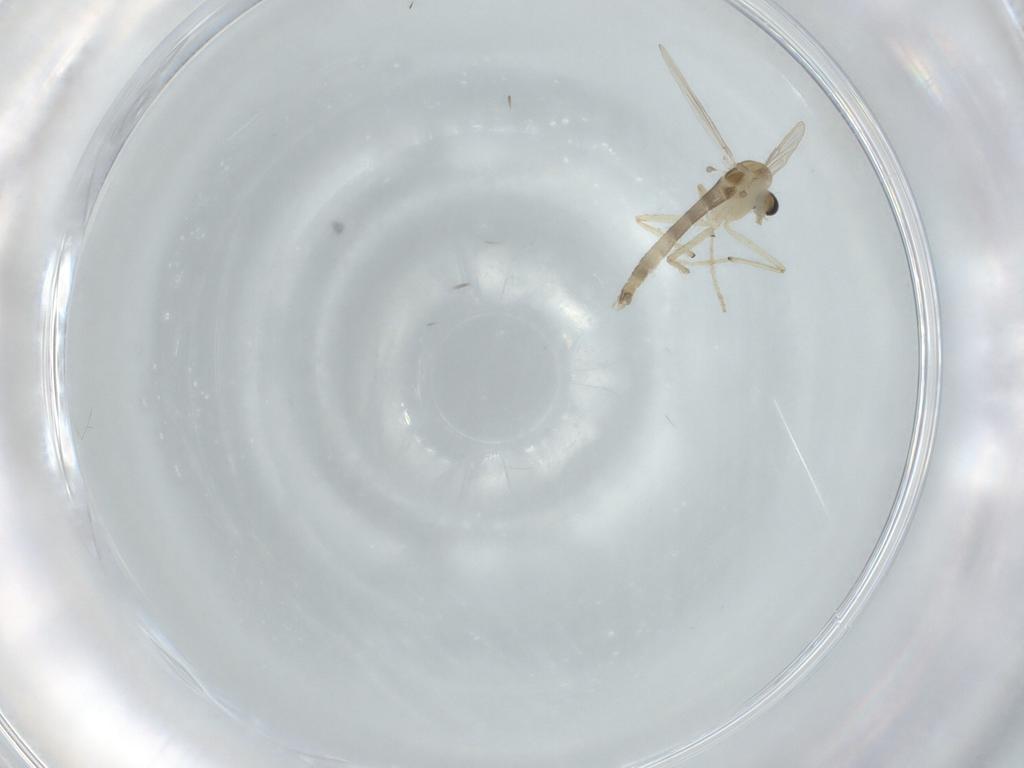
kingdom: Animalia
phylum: Arthropoda
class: Insecta
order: Diptera
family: Chironomidae
